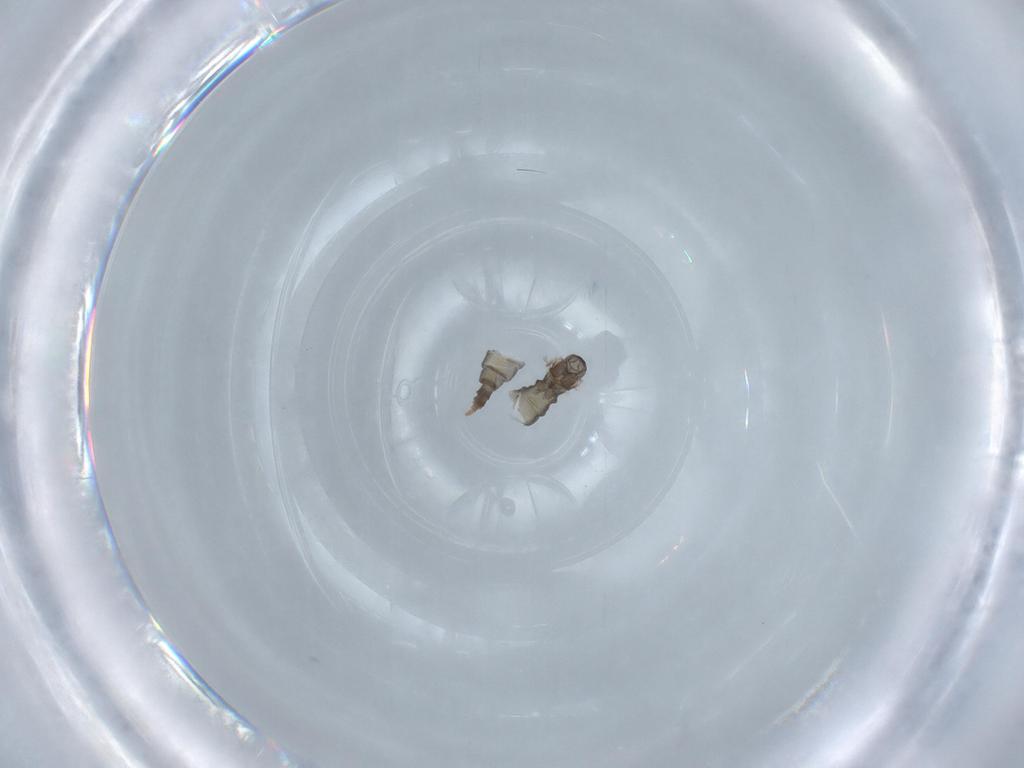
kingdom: Animalia
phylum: Arthropoda
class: Insecta
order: Diptera
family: Cecidomyiidae
